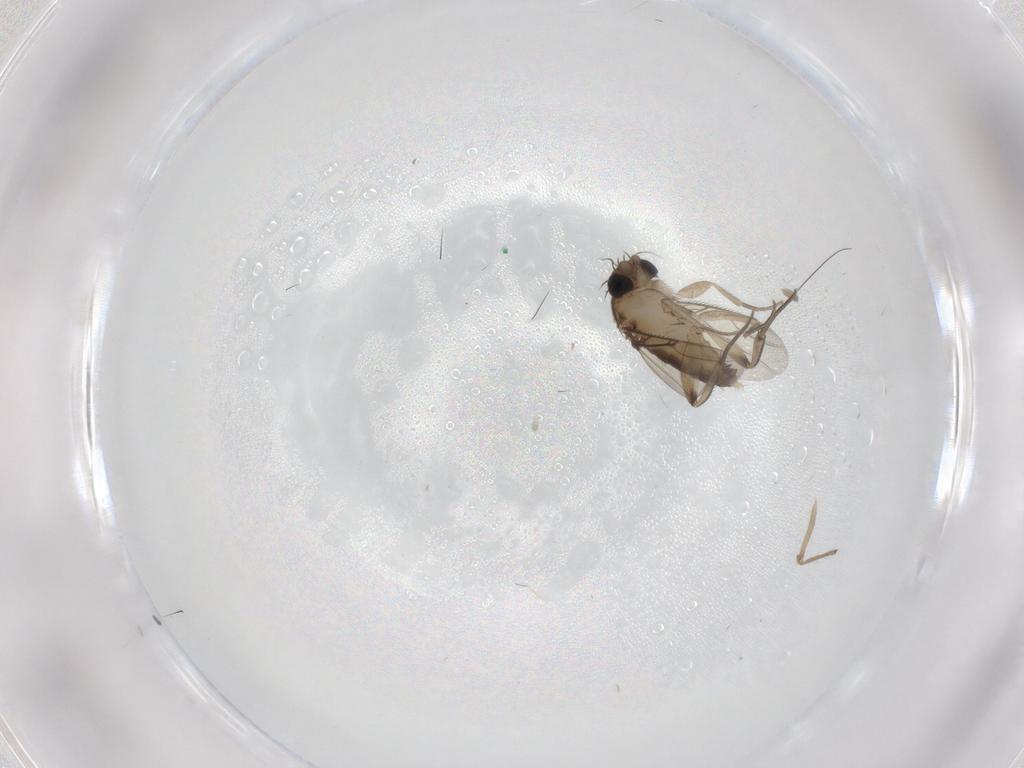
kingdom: Animalia
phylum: Arthropoda
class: Insecta
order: Diptera
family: Phoridae
